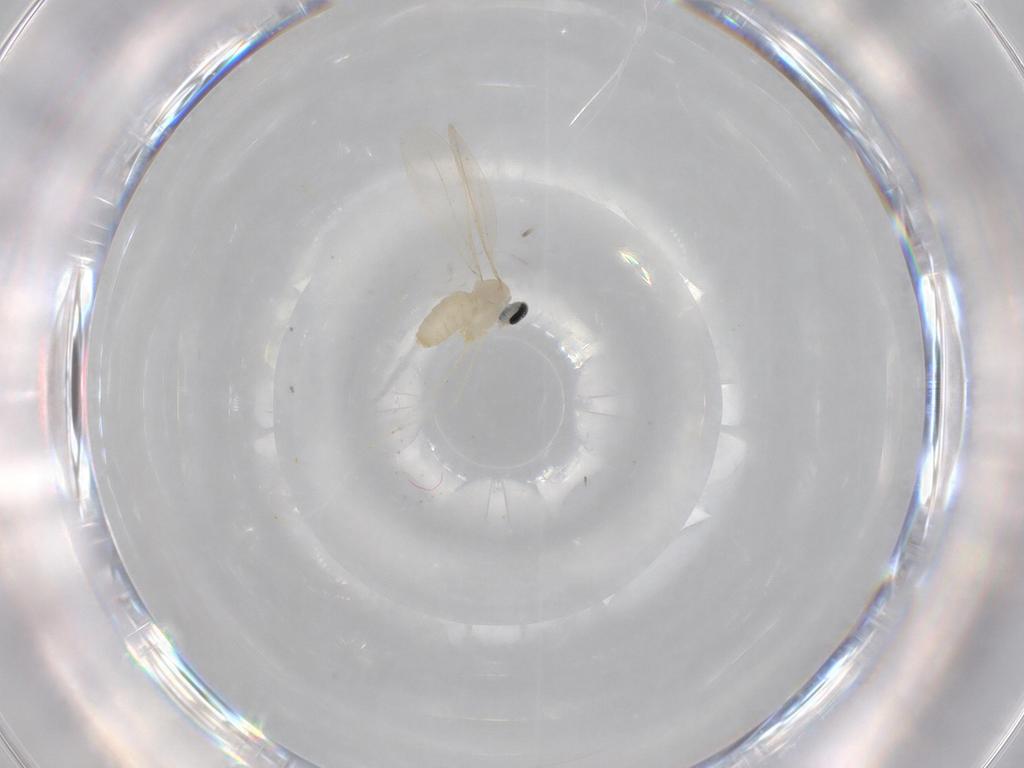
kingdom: Animalia
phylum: Arthropoda
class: Insecta
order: Diptera
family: Cecidomyiidae
